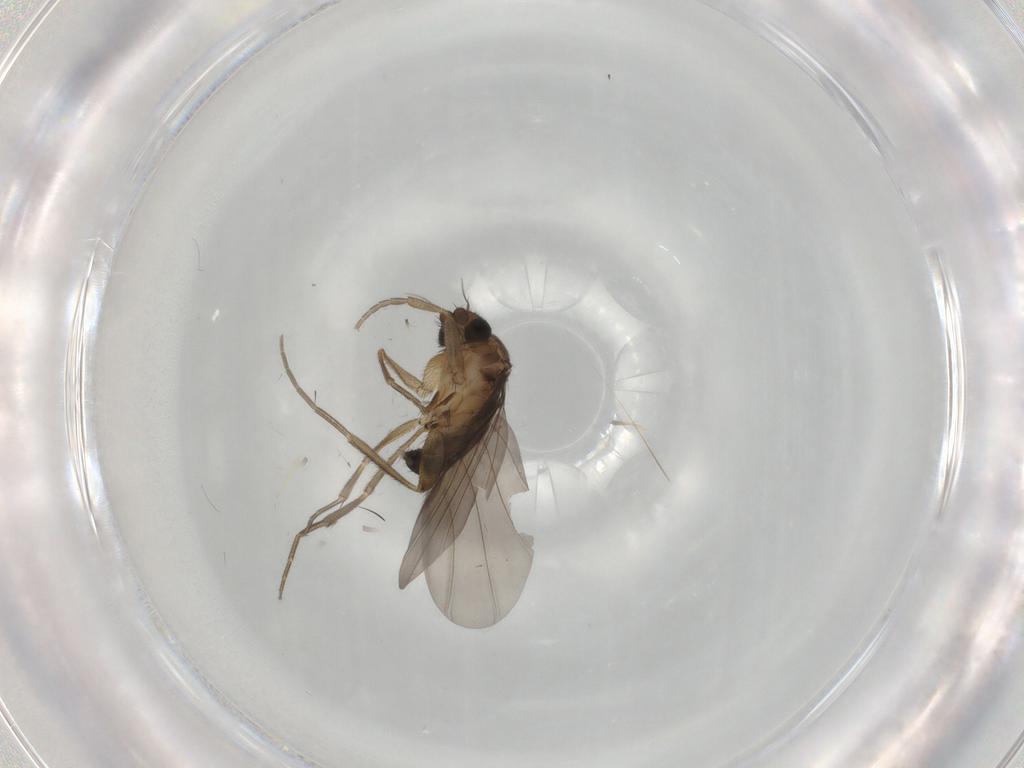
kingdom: Animalia
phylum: Arthropoda
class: Insecta
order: Diptera
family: Phoridae
